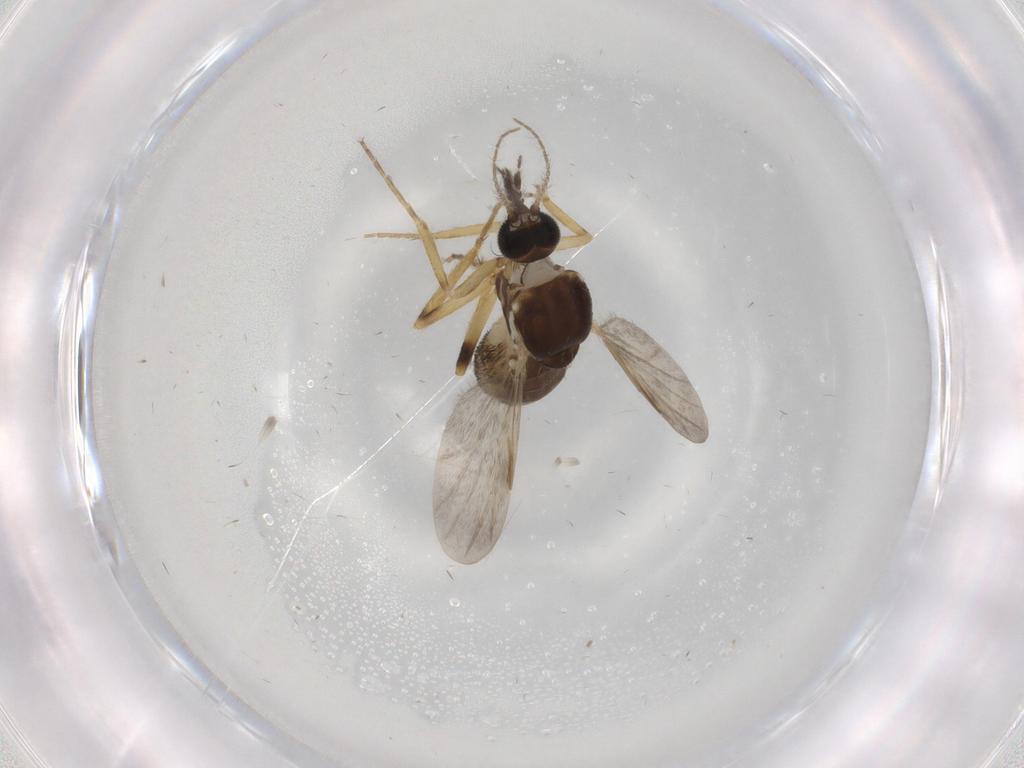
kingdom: Animalia
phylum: Arthropoda
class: Insecta
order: Diptera
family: Ceratopogonidae
